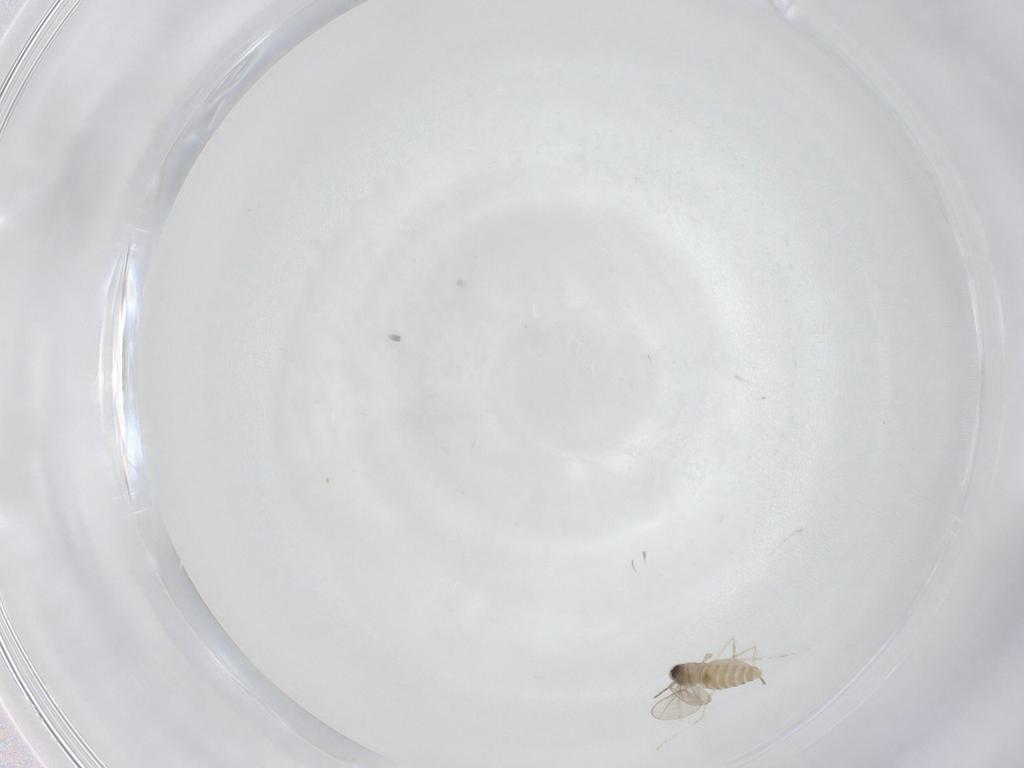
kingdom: Animalia
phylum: Arthropoda
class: Insecta
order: Diptera
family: Cecidomyiidae
